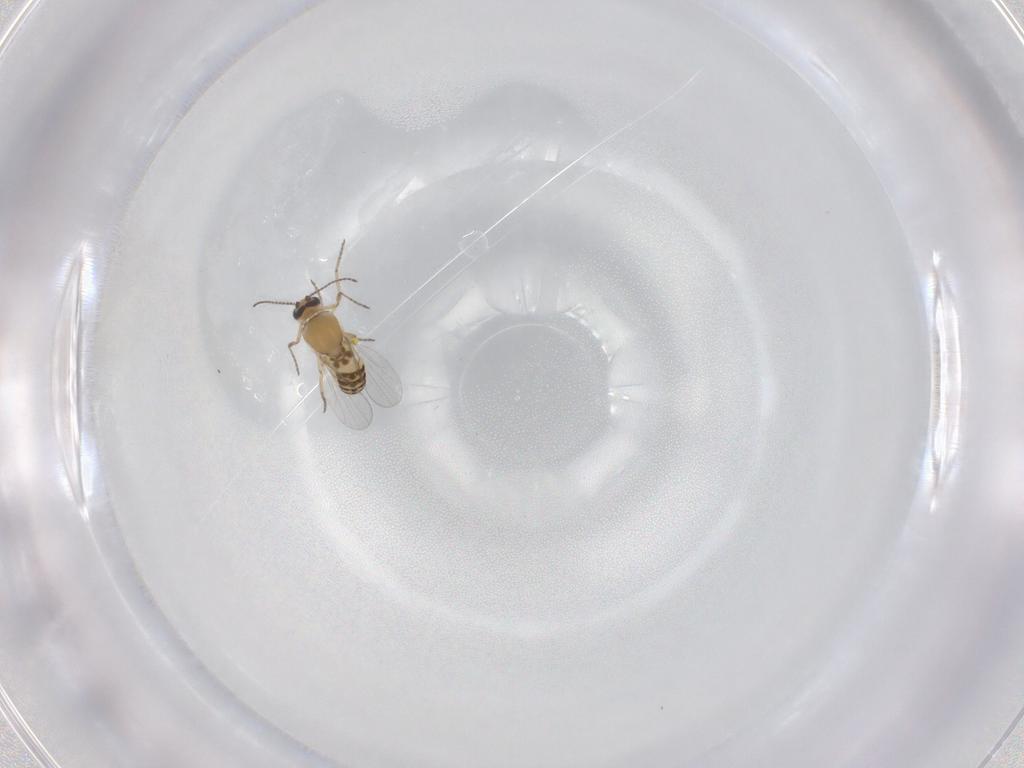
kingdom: Animalia
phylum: Arthropoda
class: Insecta
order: Diptera
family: Ceratopogonidae
